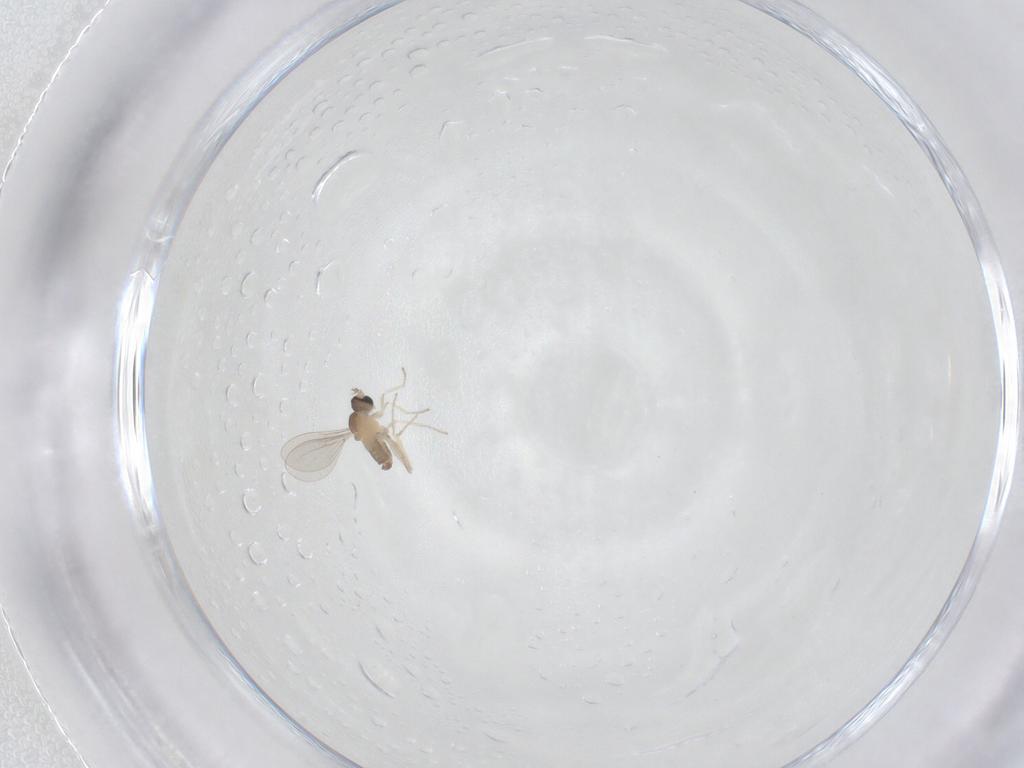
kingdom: Animalia
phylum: Arthropoda
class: Insecta
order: Diptera
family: Cecidomyiidae
